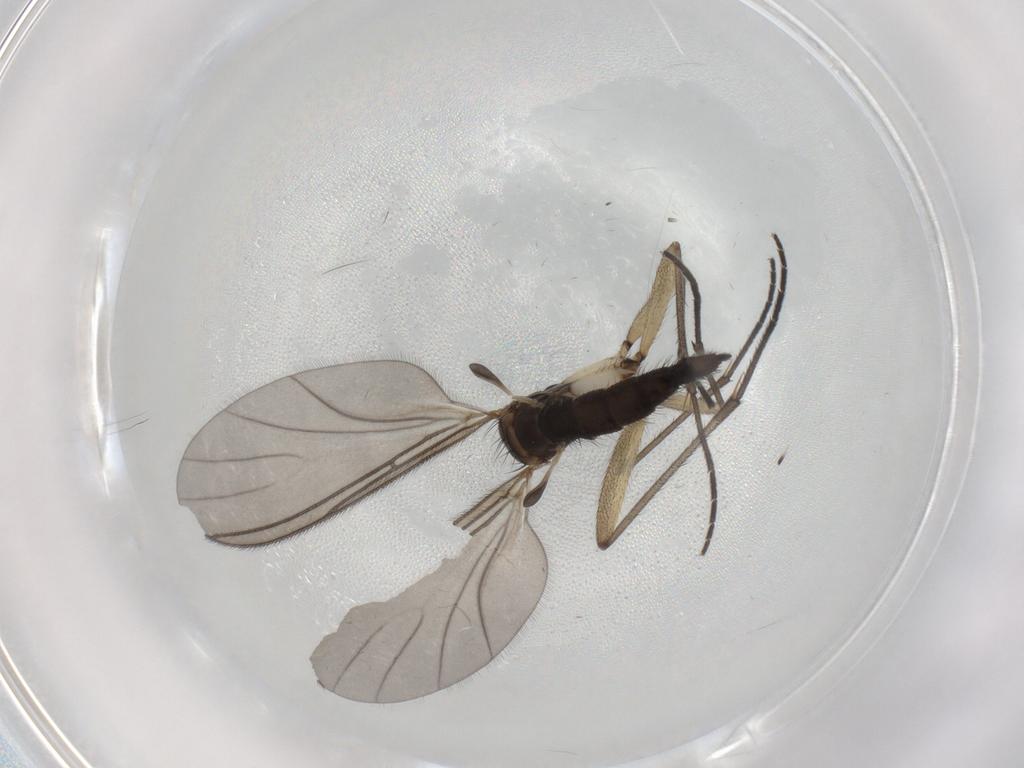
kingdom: Animalia
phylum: Arthropoda
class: Insecta
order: Diptera
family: Sciaridae
